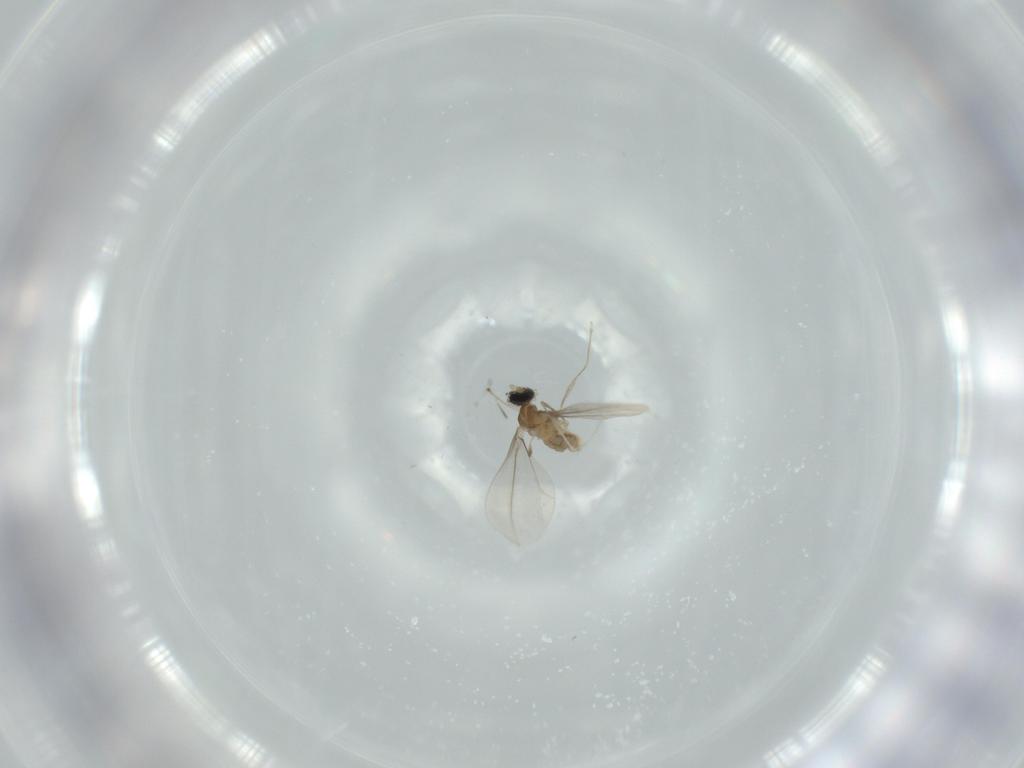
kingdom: Animalia
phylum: Arthropoda
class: Insecta
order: Diptera
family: Cecidomyiidae
